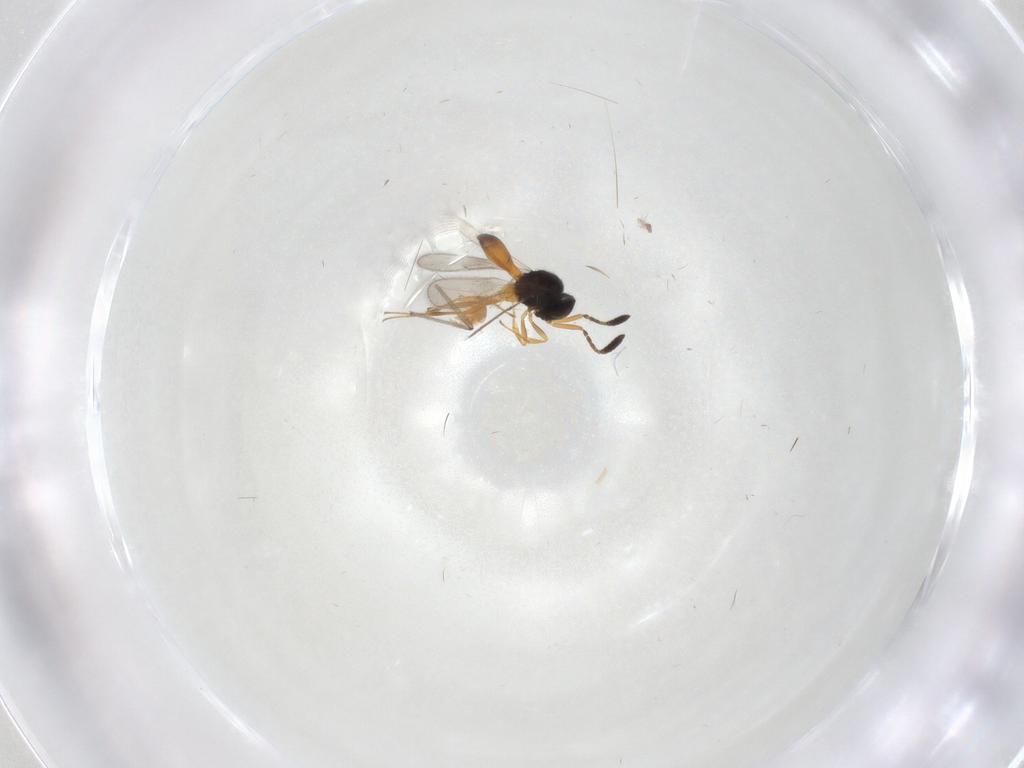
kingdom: Animalia
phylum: Arthropoda
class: Insecta
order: Hymenoptera
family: Scelionidae
